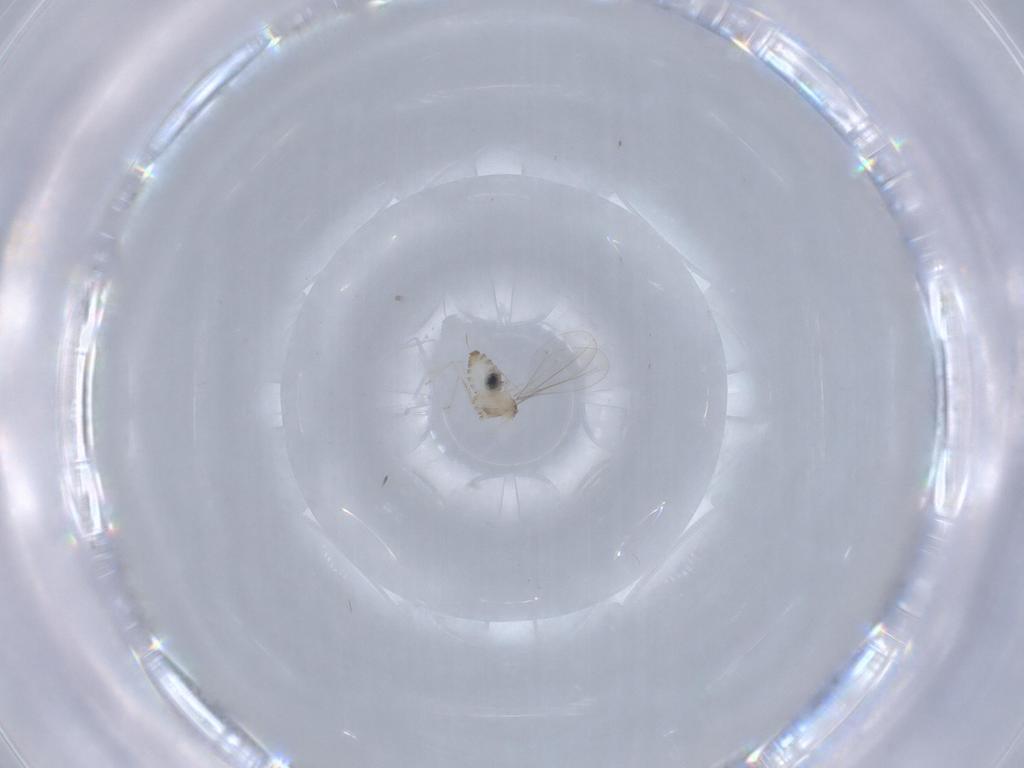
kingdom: Animalia
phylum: Arthropoda
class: Insecta
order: Diptera
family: Cecidomyiidae
